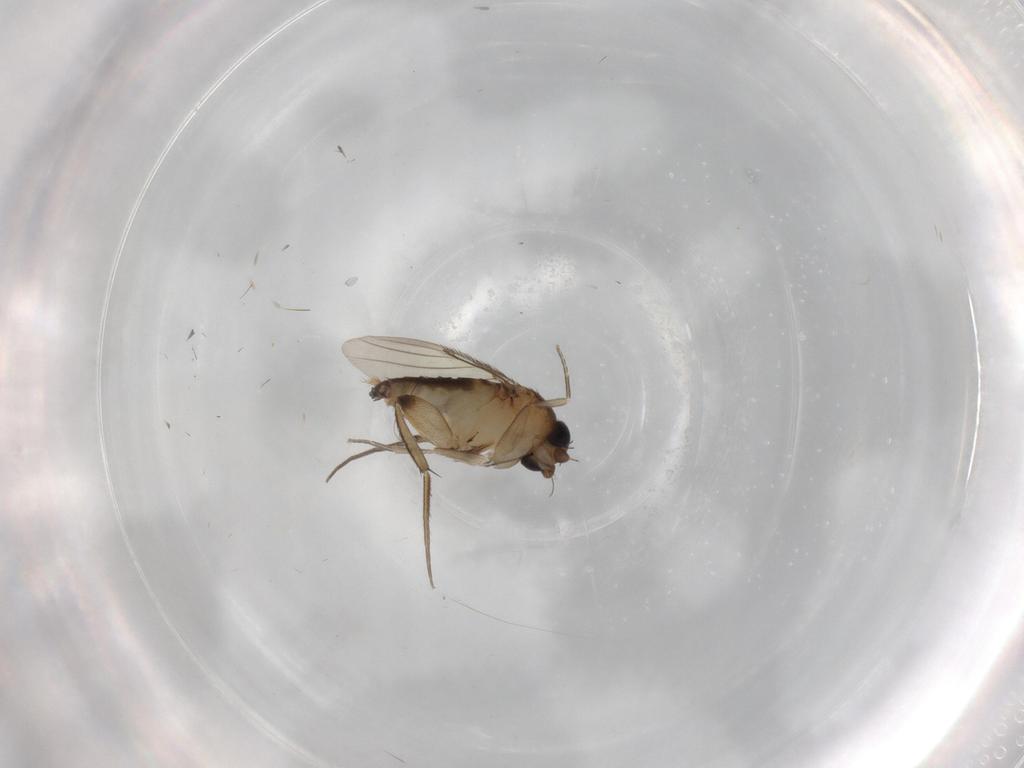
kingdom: Animalia
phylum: Arthropoda
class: Insecta
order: Diptera
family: Phoridae
